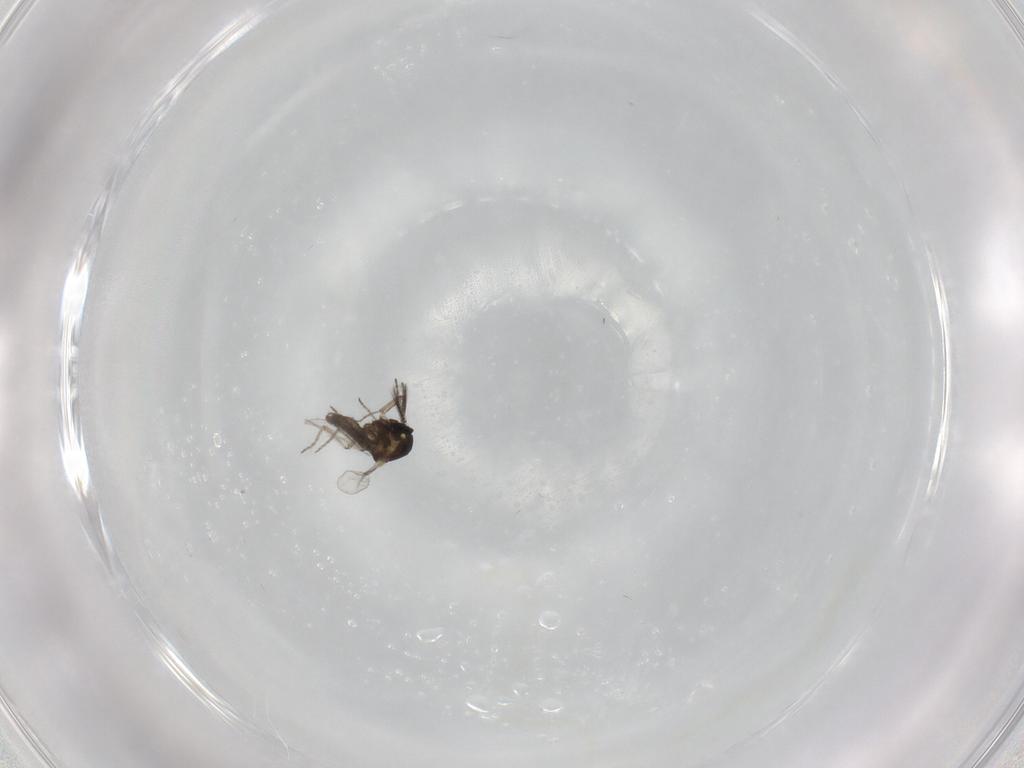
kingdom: Animalia
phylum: Arthropoda
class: Insecta
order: Diptera
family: Ceratopogonidae
